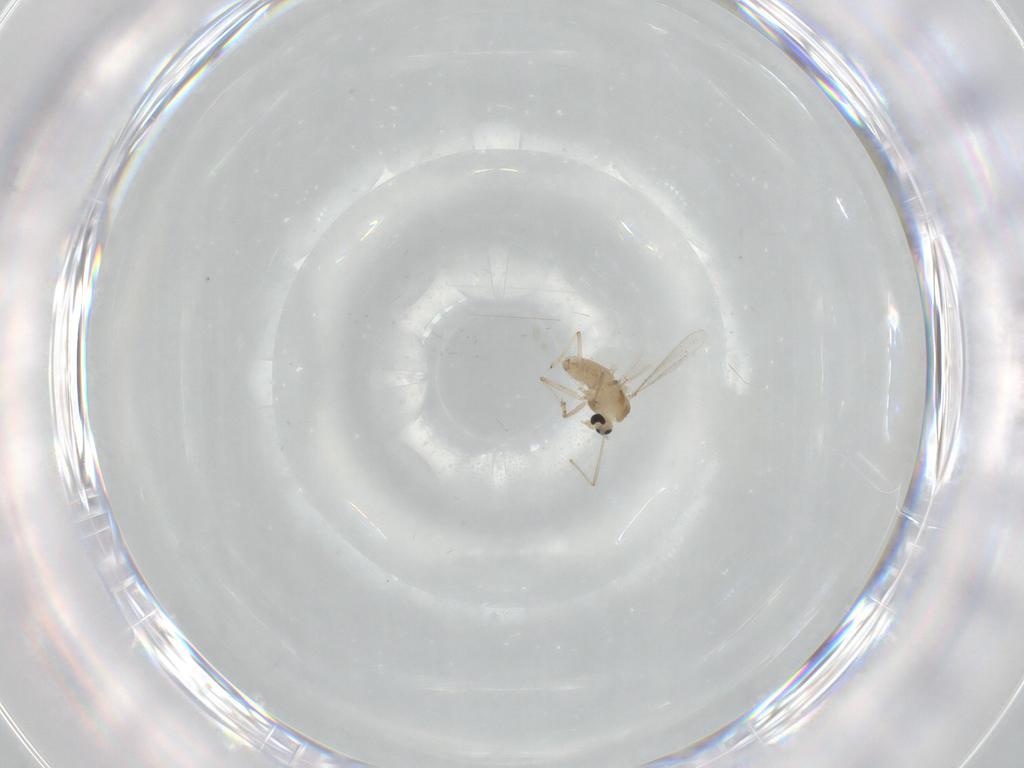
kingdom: Animalia
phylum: Arthropoda
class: Insecta
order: Diptera
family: Chironomidae
